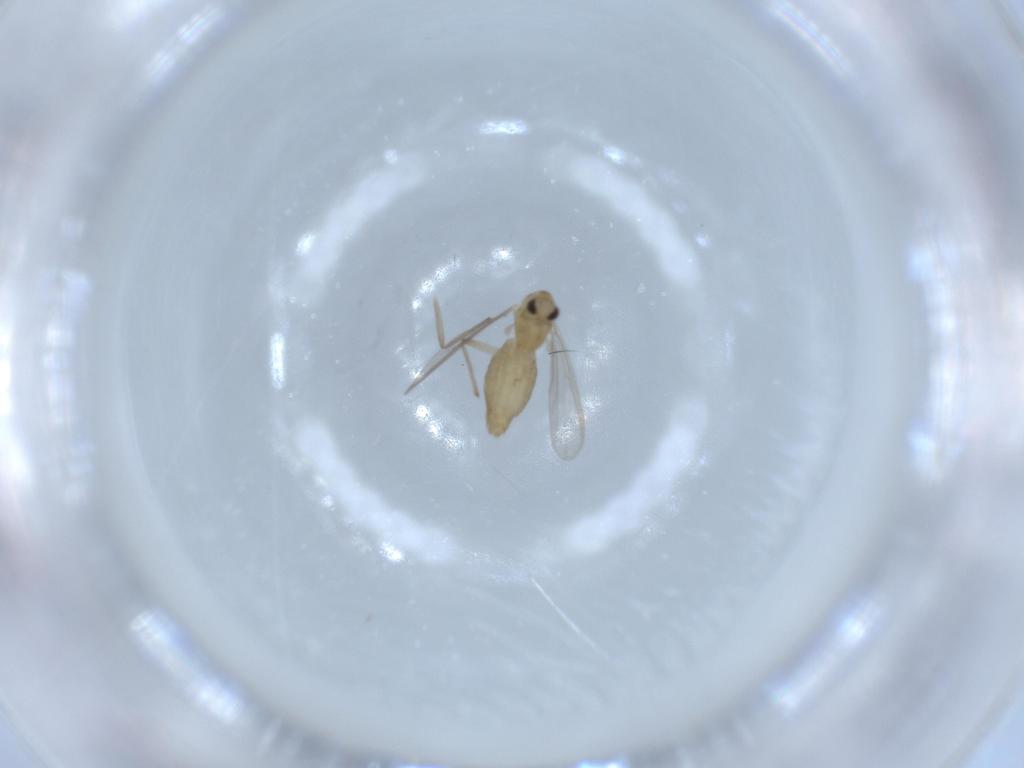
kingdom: Animalia
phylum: Arthropoda
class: Insecta
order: Diptera
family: Chironomidae
